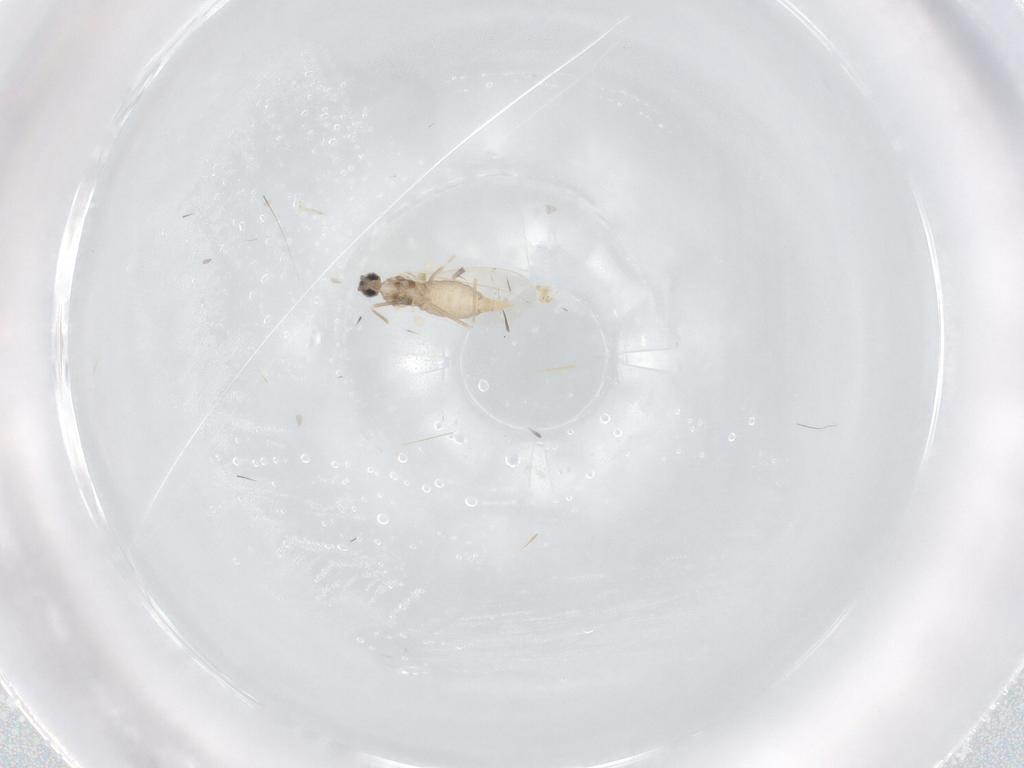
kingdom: Animalia
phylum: Arthropoda
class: Insecta
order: Diptera
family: Cecidomyiidae
